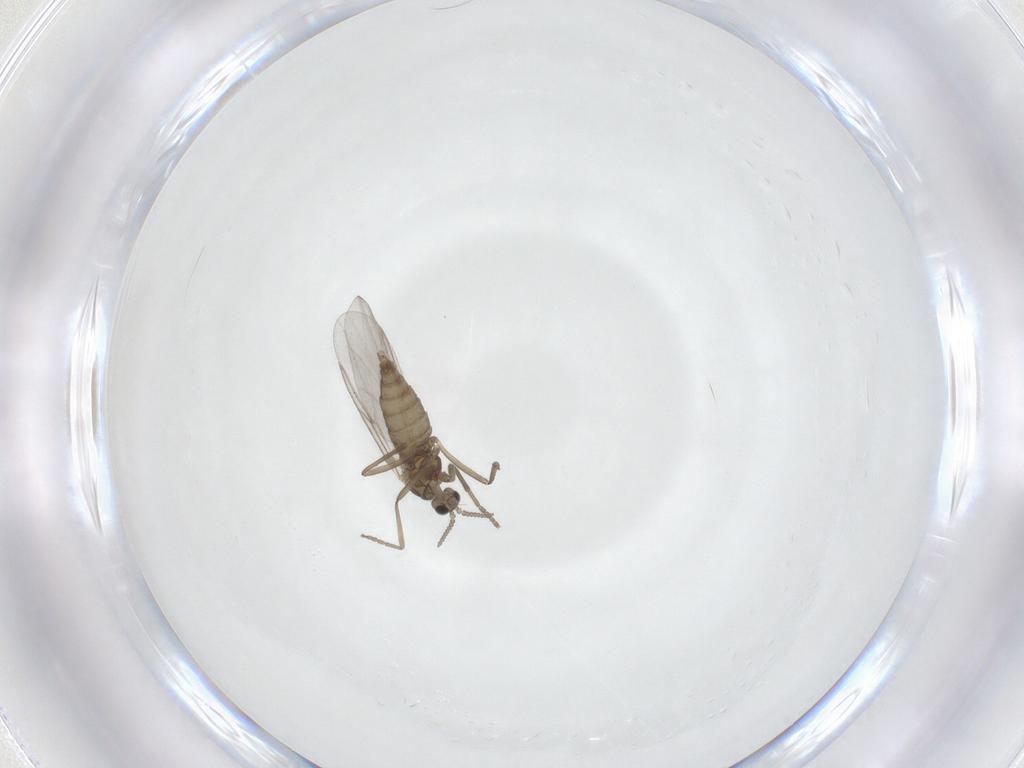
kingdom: Animalia
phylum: Arthropoda
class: Insecta
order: Diptera
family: Cecidomyiidae
